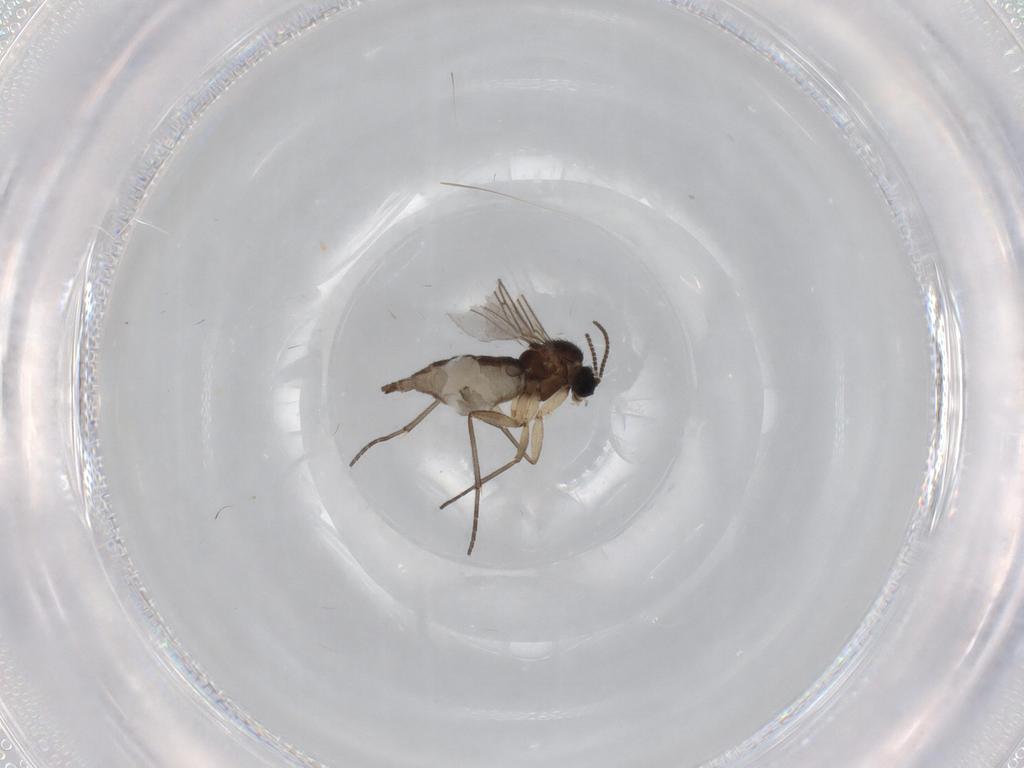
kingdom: Animalia
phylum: Arthropoda
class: Insecta
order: Diptera
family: Sciaridae
